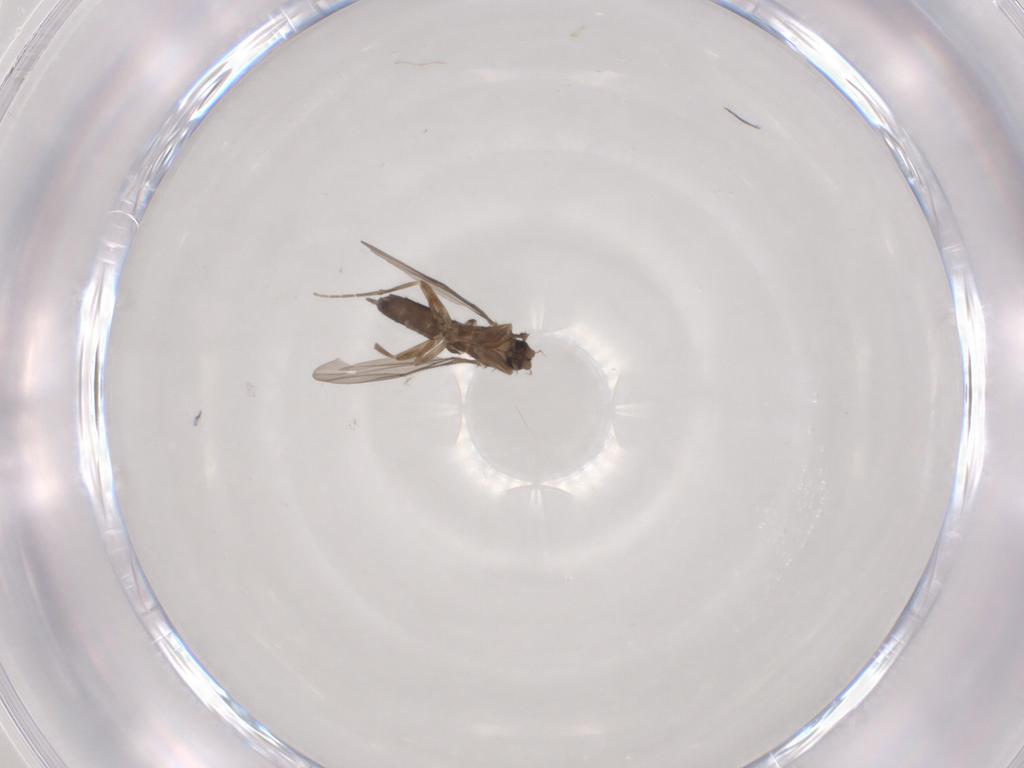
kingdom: Animalia
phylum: Arthropoda
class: Insecta
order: Diptera
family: Phoridae
